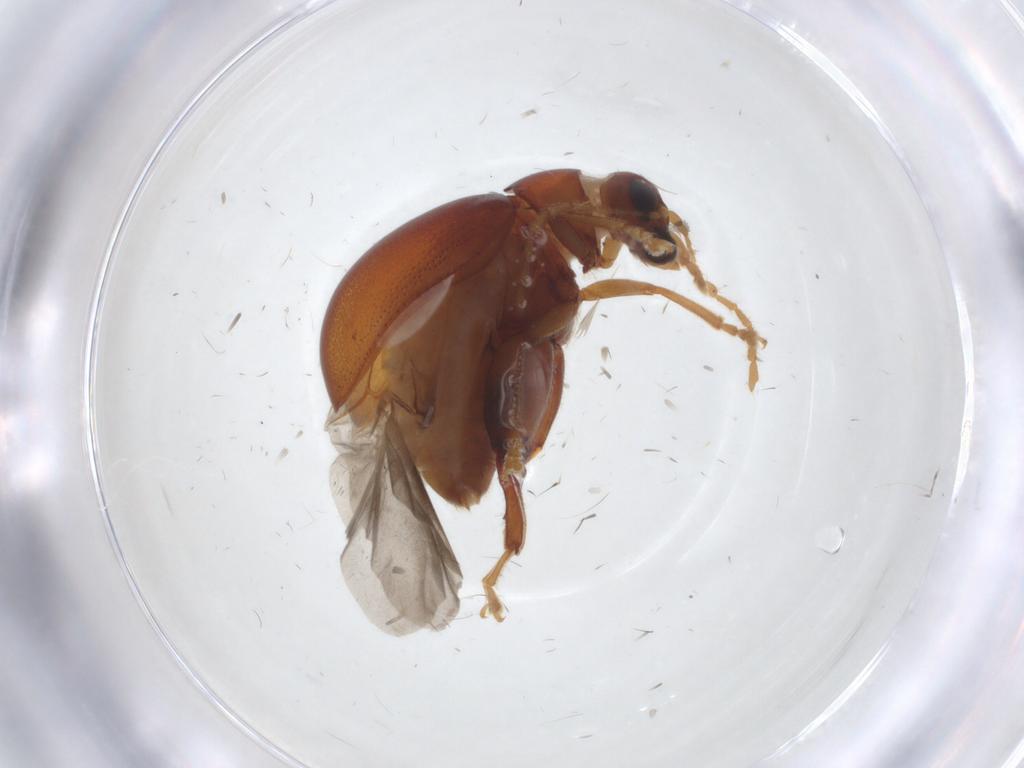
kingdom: Animalia
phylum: Arthropoda
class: Insecta
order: Coleoptera
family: Chrysomelidae
